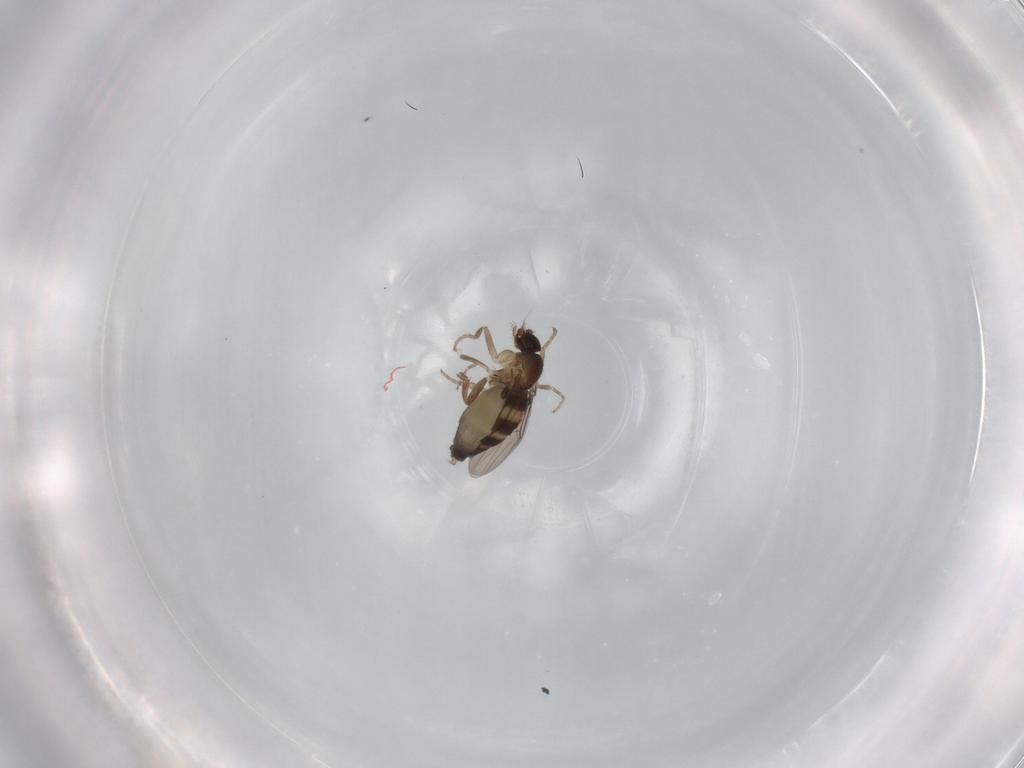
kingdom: Animalia
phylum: Arthropoda
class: Insecta
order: Diptera
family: Phoridae
